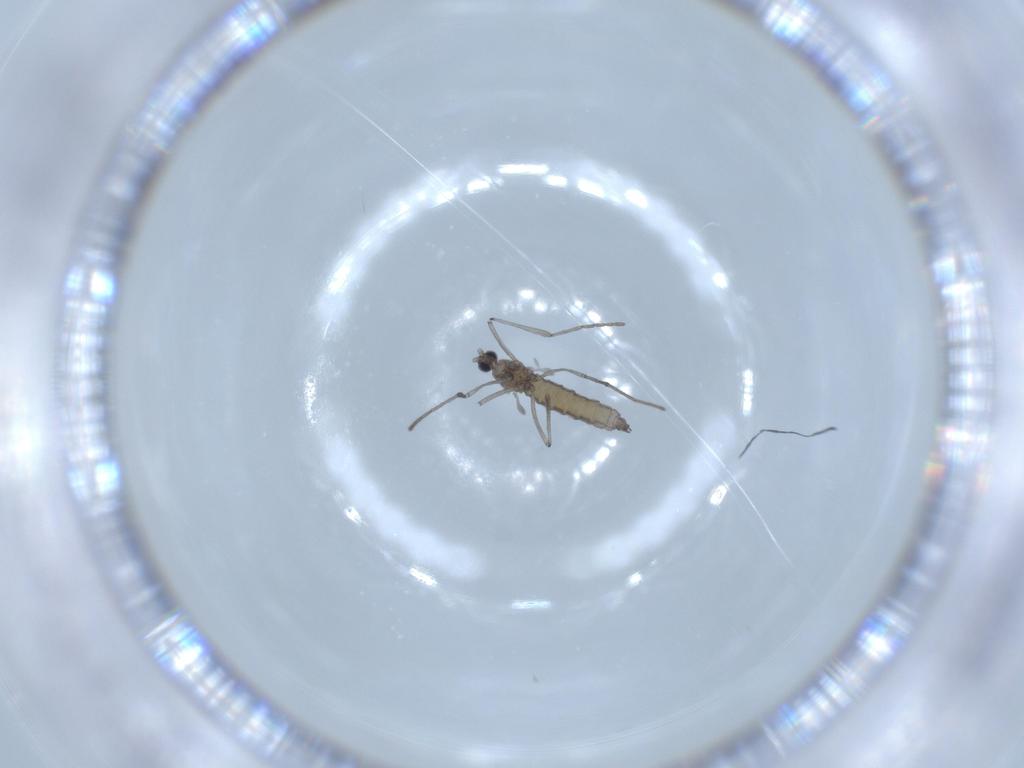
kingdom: Animalia
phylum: Arthropoda
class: Insecta
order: Diptera
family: Cecidomyiidae
